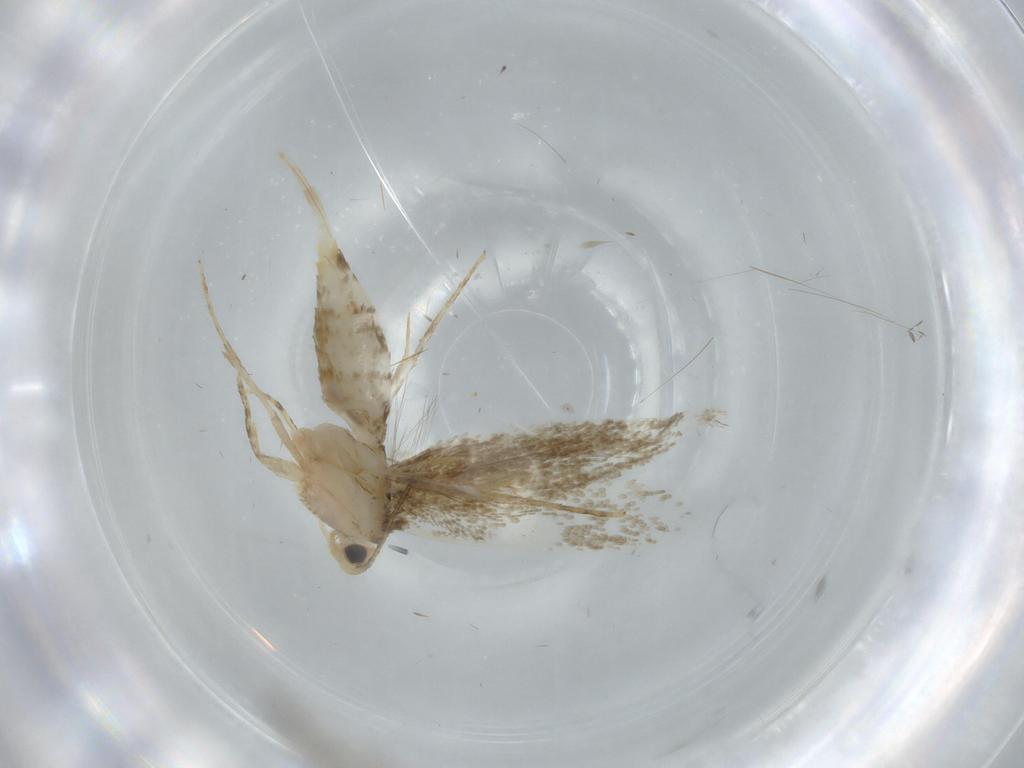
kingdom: Animalia
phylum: Arthropoda
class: Insecta
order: Lepidoptera
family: Tineidae
